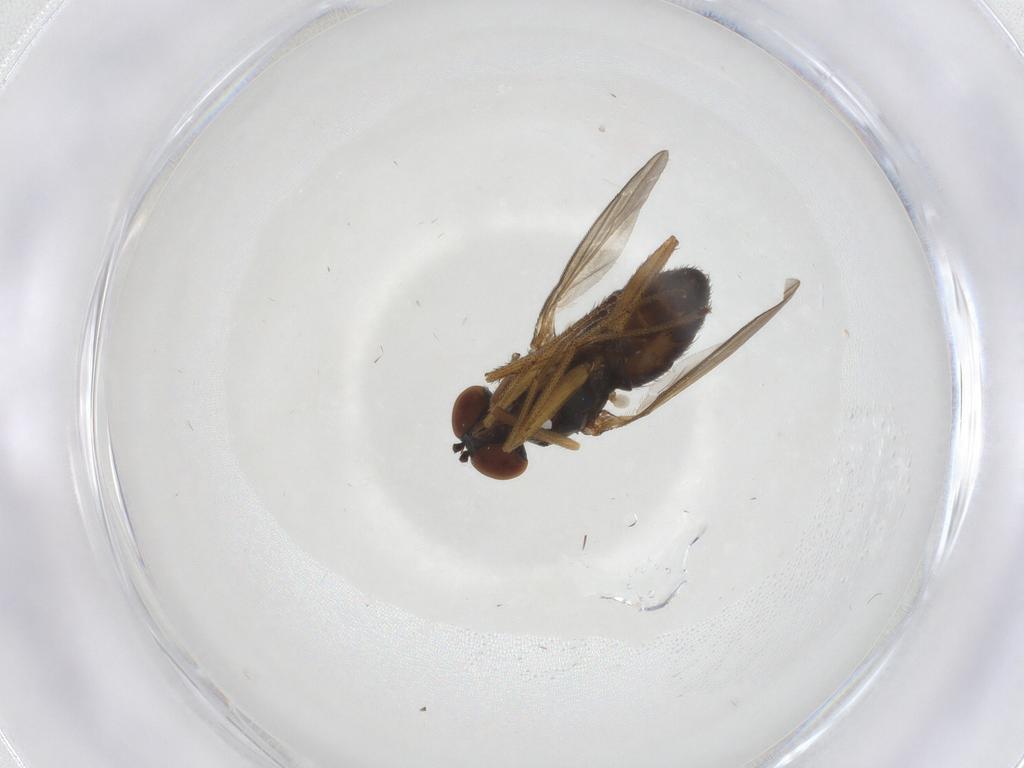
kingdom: Animalia
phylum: Arthropoda
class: Insecta
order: Diptera
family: Dolichopodidae
